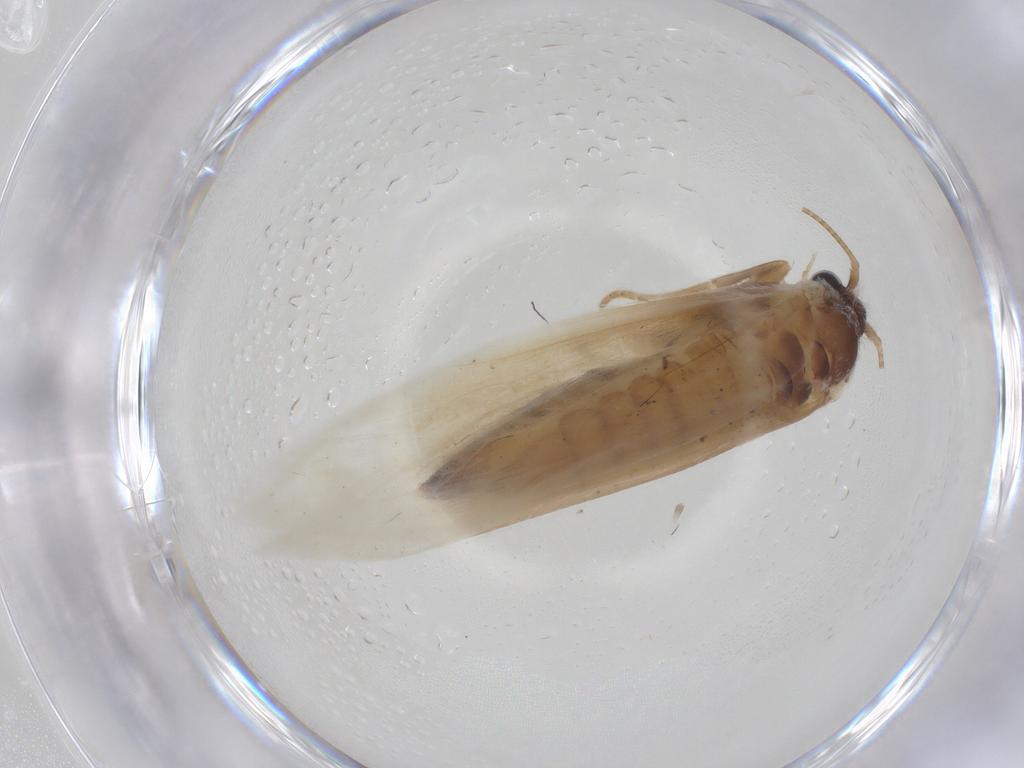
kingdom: Animalia
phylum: Arthropoda
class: Insecta
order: Lepidoptera
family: Tridentaformidae
